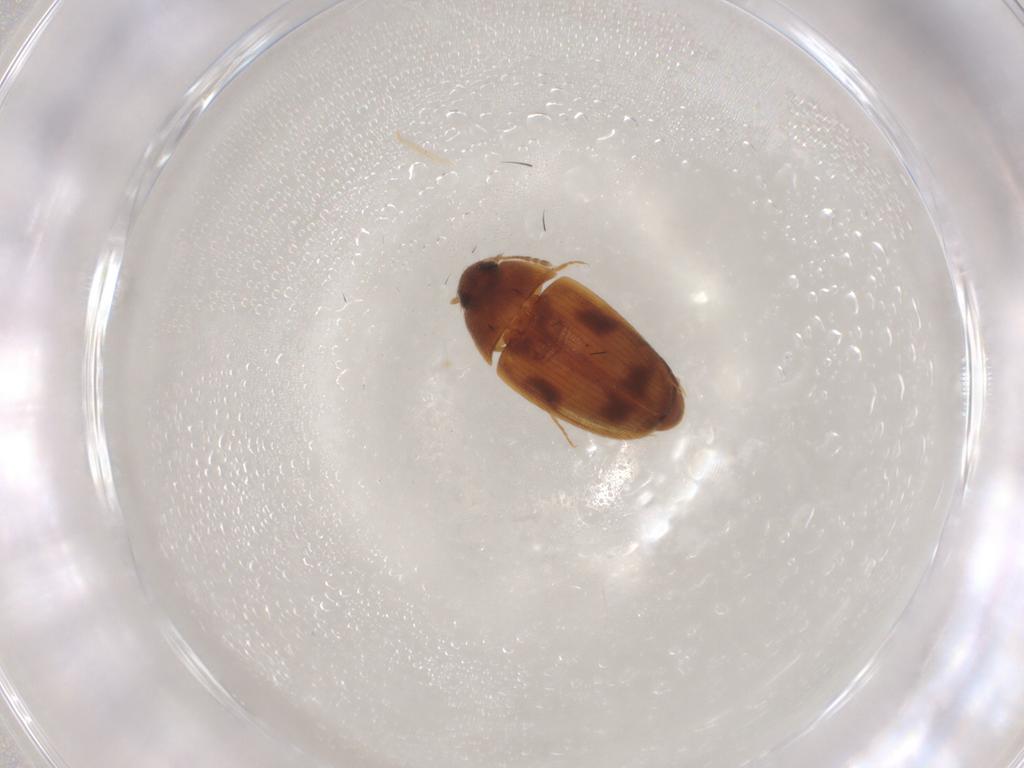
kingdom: Animalia
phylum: Arthropoda
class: Insecta
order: Coleoptera
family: Mycetophagidae
